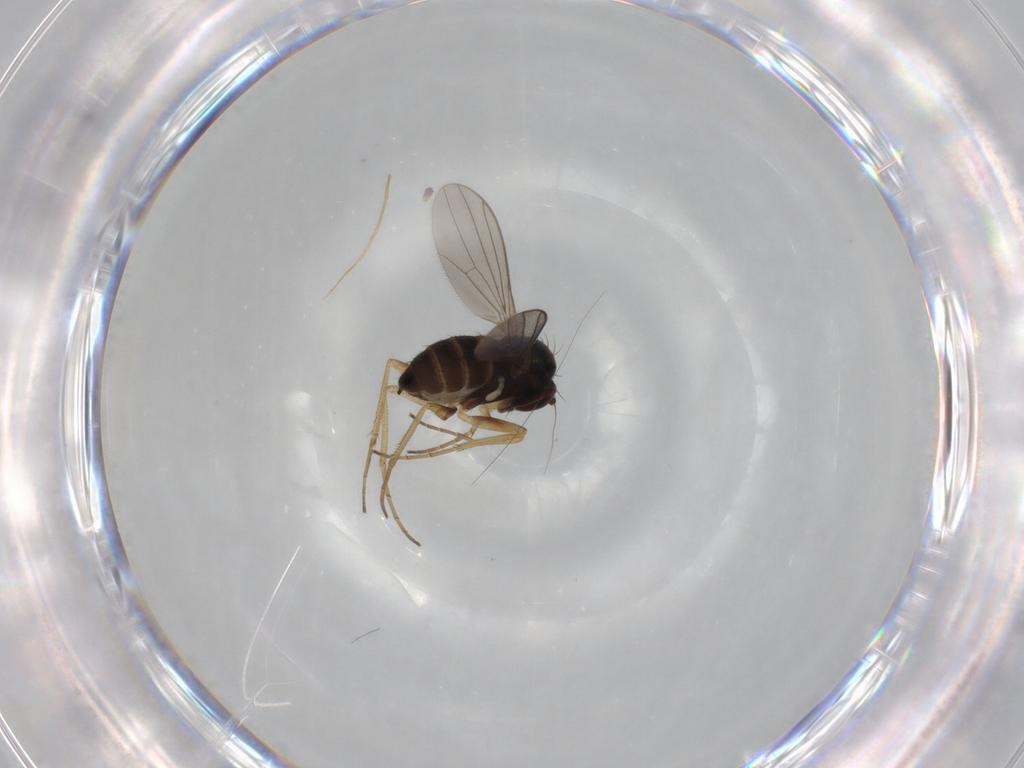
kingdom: Animalia
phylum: Arthropoda
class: Insecta
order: Diptera
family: Dolichopodidae
